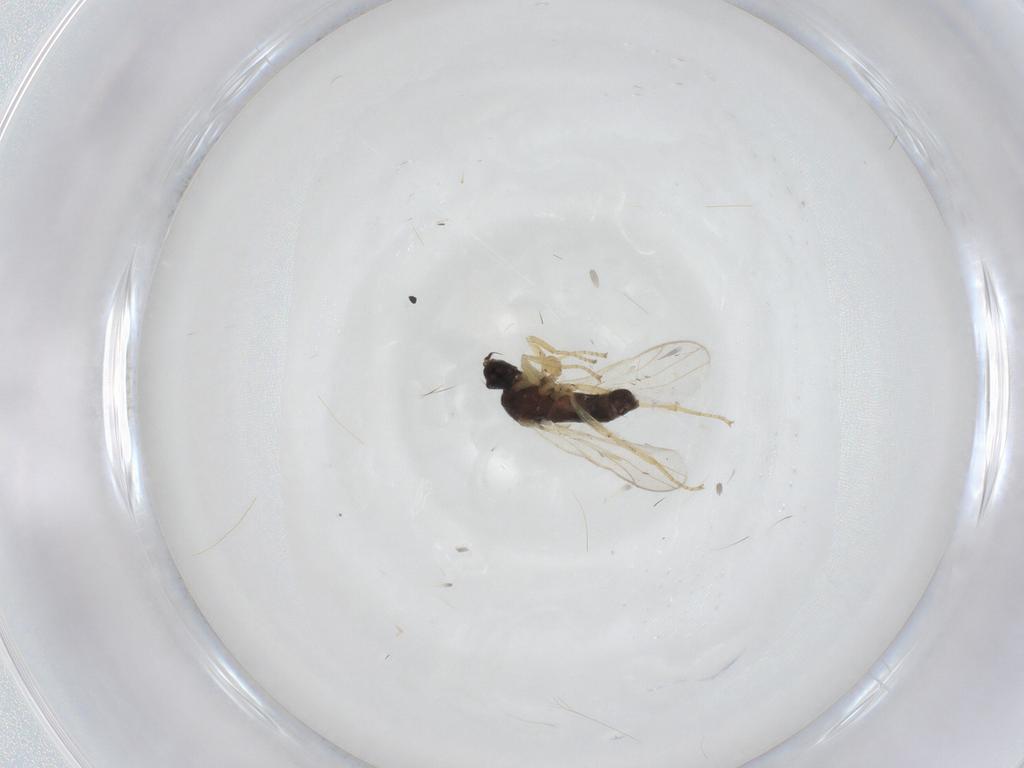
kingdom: Animalia
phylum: Arthropoda
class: Insecta
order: Diptera
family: Hybotidae
